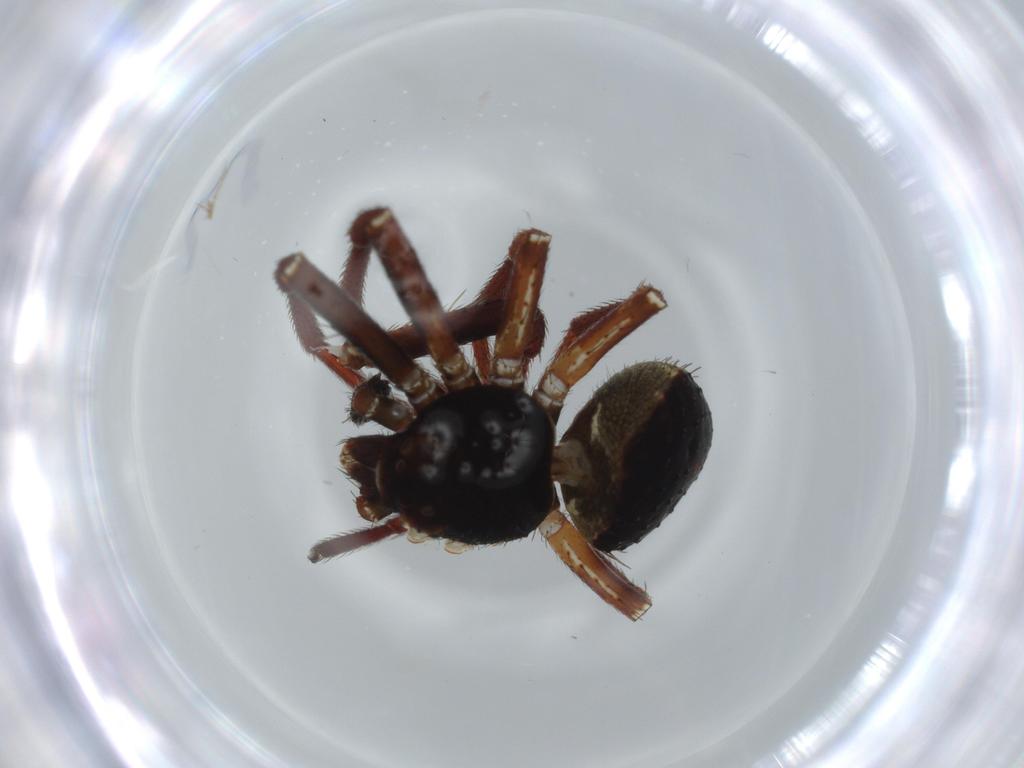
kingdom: Animalia
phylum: Arthropoda
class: Arachnida
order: Araneae
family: Thomisidae
